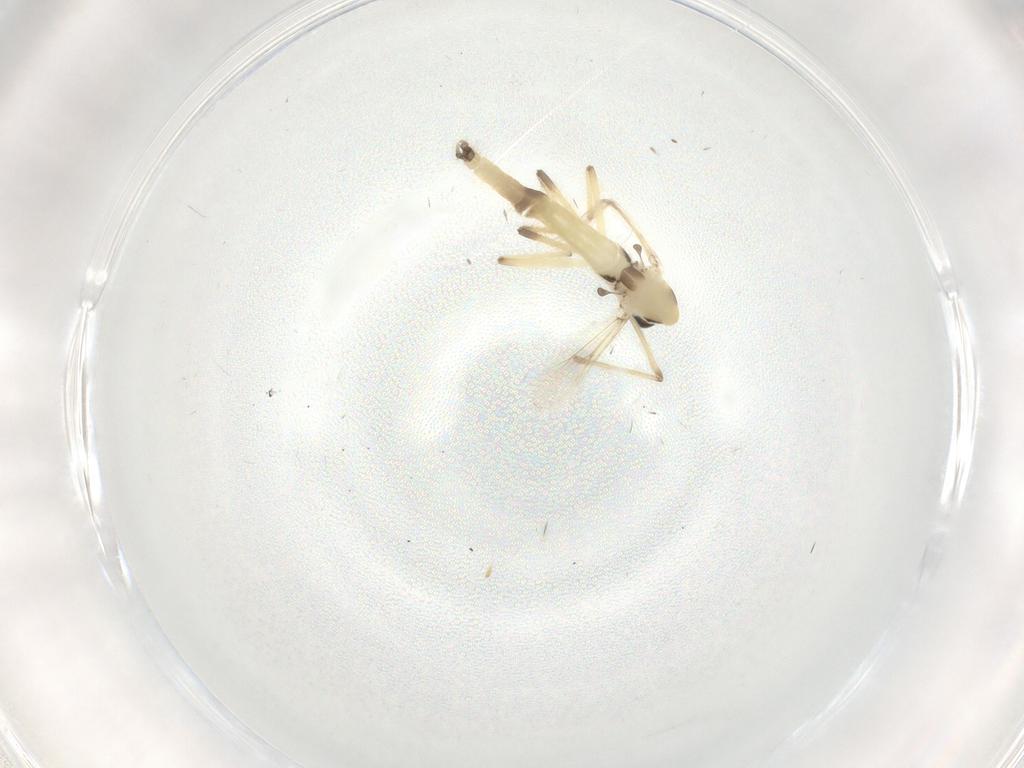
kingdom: Animalia
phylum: Arthropoda
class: Insecta
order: Diptera
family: Chironomidae
